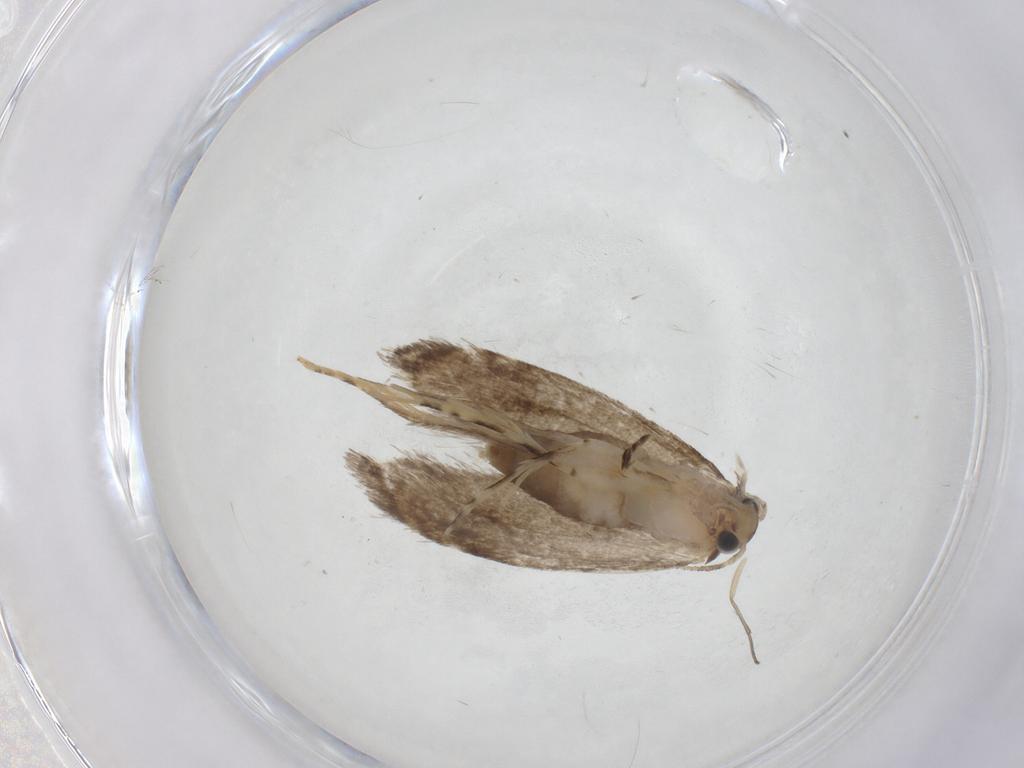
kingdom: Animalia
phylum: Arthropoda
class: Insecta
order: Lepidoptera
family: Tineidae
